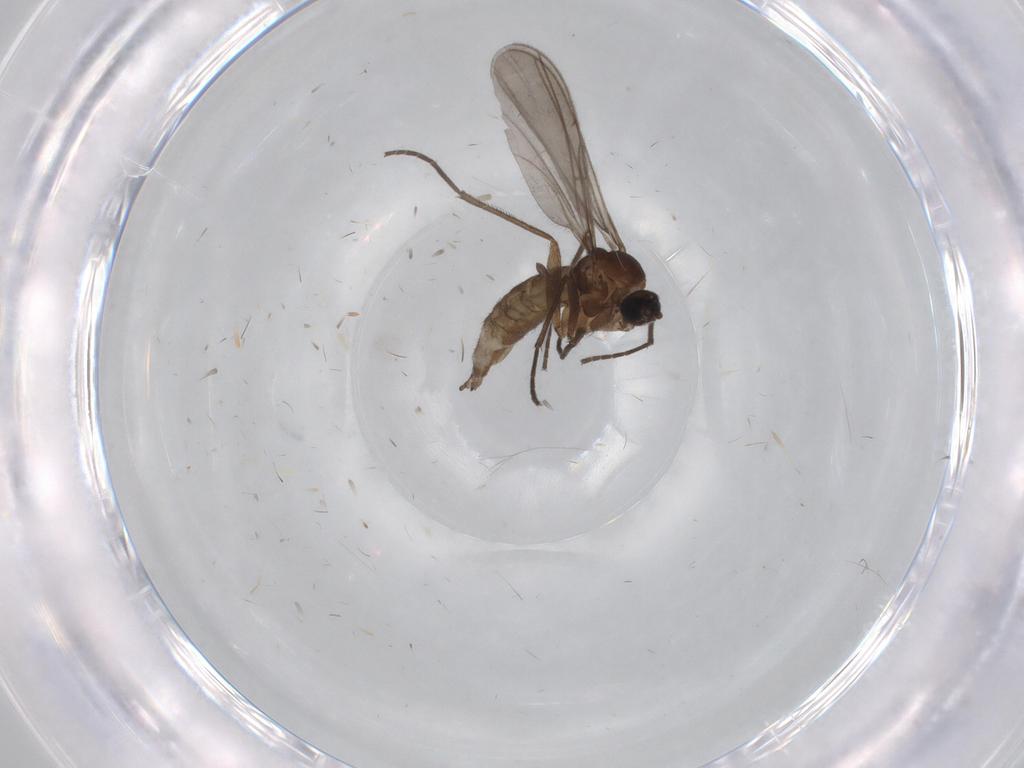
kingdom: Animalia
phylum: Arthropoda
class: Insecta
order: Diptera
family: Sciaridae
